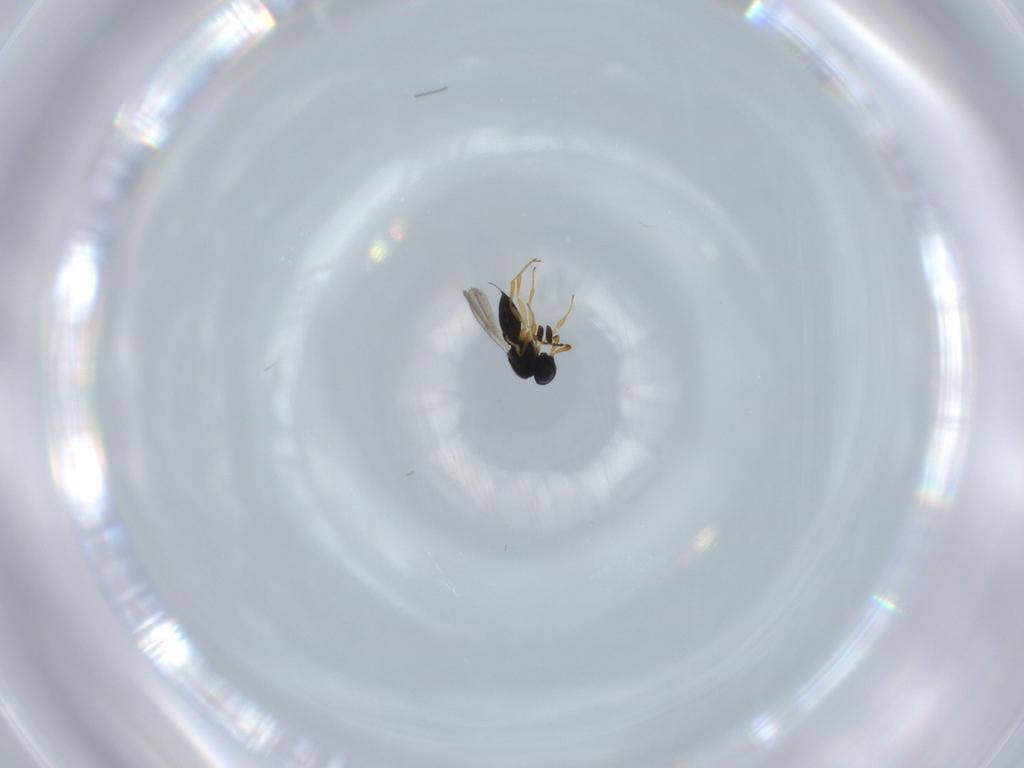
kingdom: Animalia
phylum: Arthropoda
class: Insecta
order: Hymenoptera
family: Scelionidae
